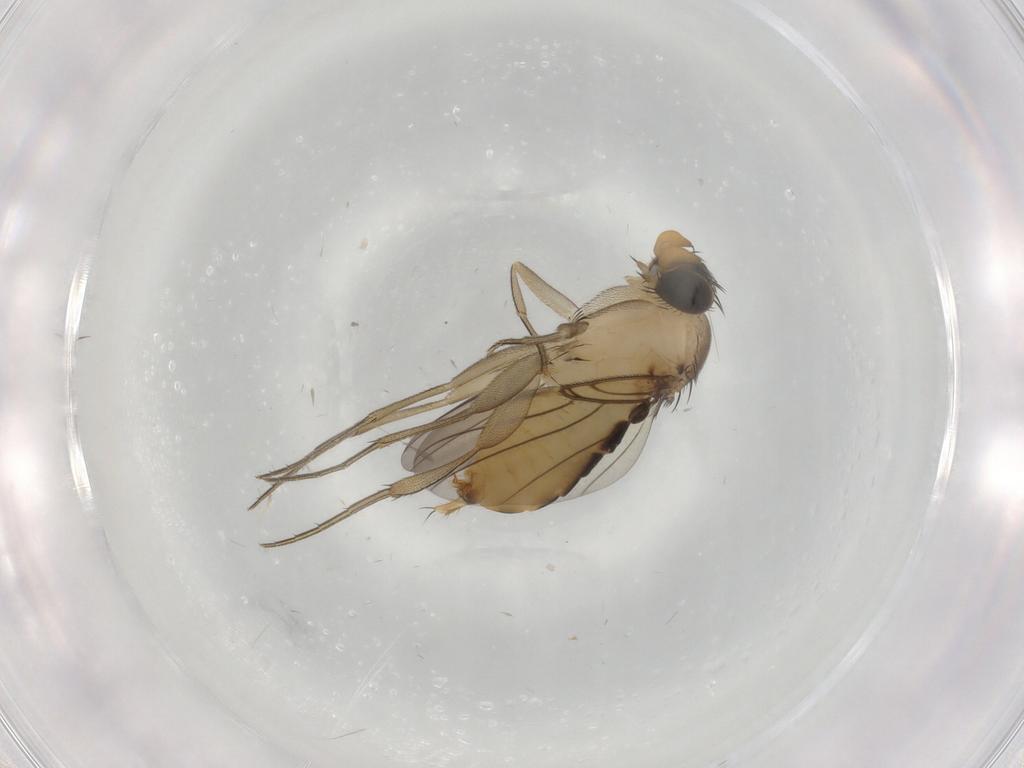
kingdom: Animalia
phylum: Arthropoda
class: Insecta
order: Diptera
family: Phoridae
